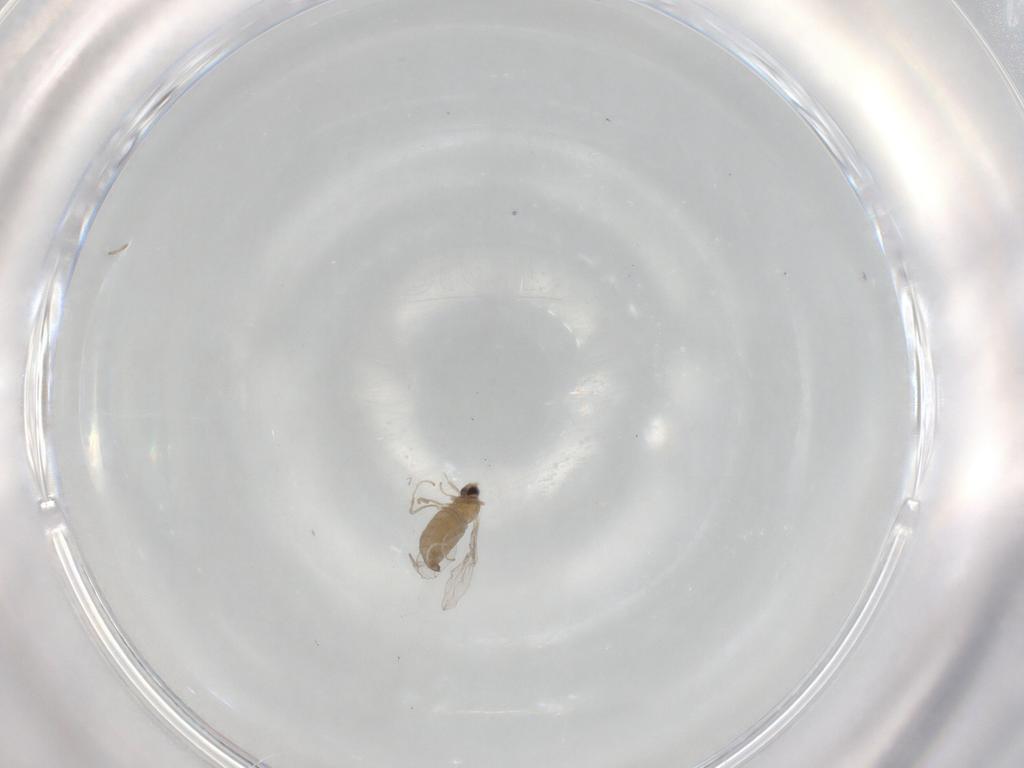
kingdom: Animalia
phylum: Arthropoda
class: Insecta
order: Diptera
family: Cecidomyiidae
